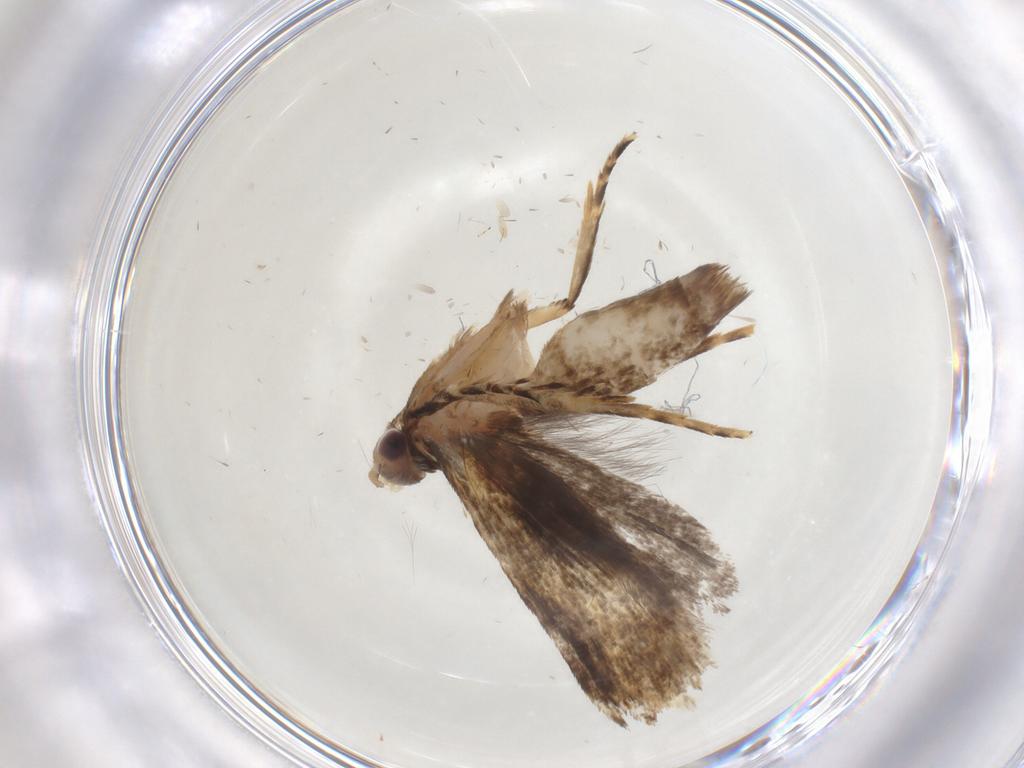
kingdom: Animalia
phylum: Arthropoda
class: Insecta
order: Lepidoptera
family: Gelechiidae
